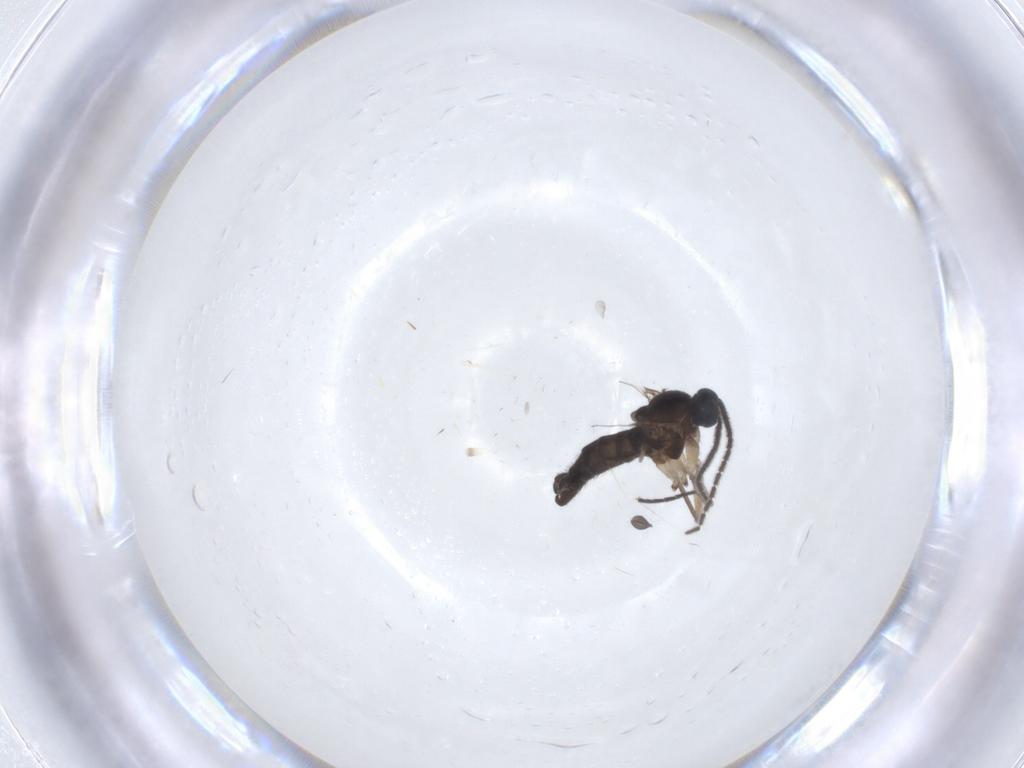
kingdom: Animalia
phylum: Arthropoda
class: Insecta
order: Diptera
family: Sciaridae
